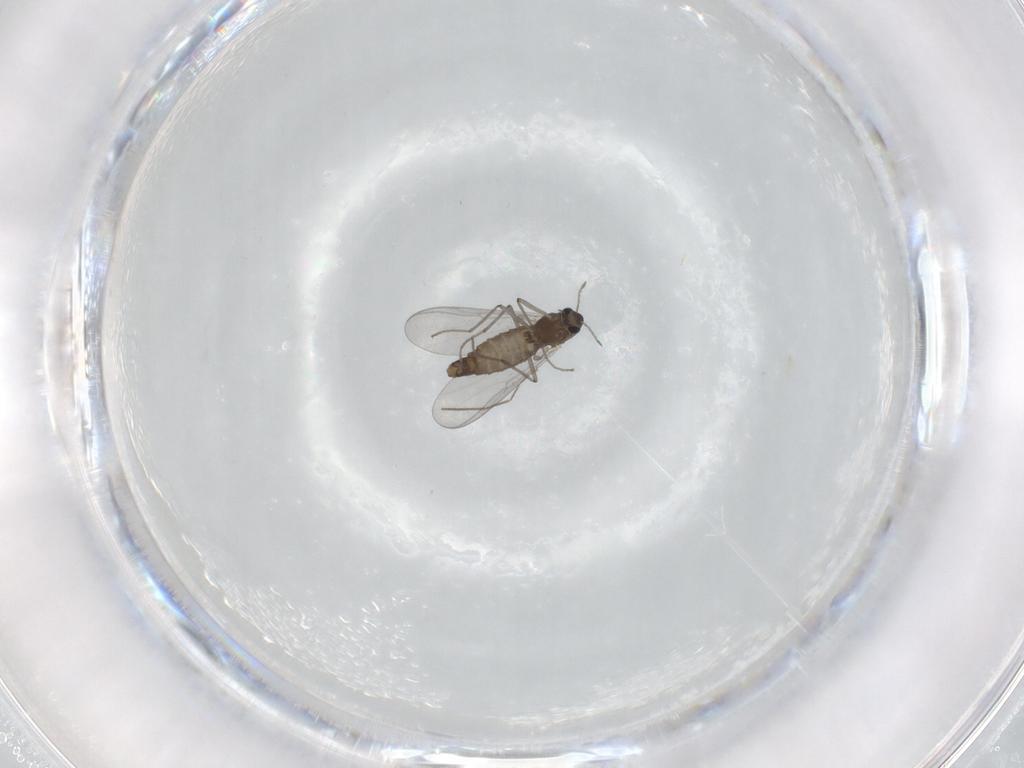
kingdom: Animalia
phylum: Arthropoda
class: Insecta
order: Diptera
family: Chironomidae
